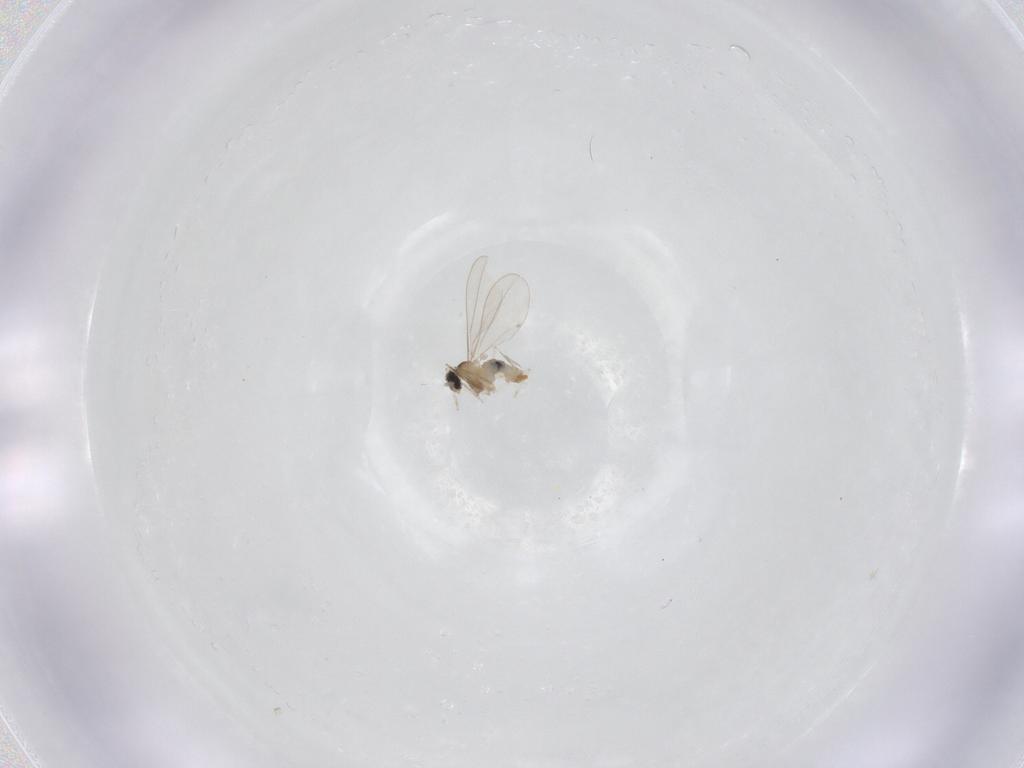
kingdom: Animalia
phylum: Arthropoda
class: Insecta
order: Diptera
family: Cecidomyiidae
